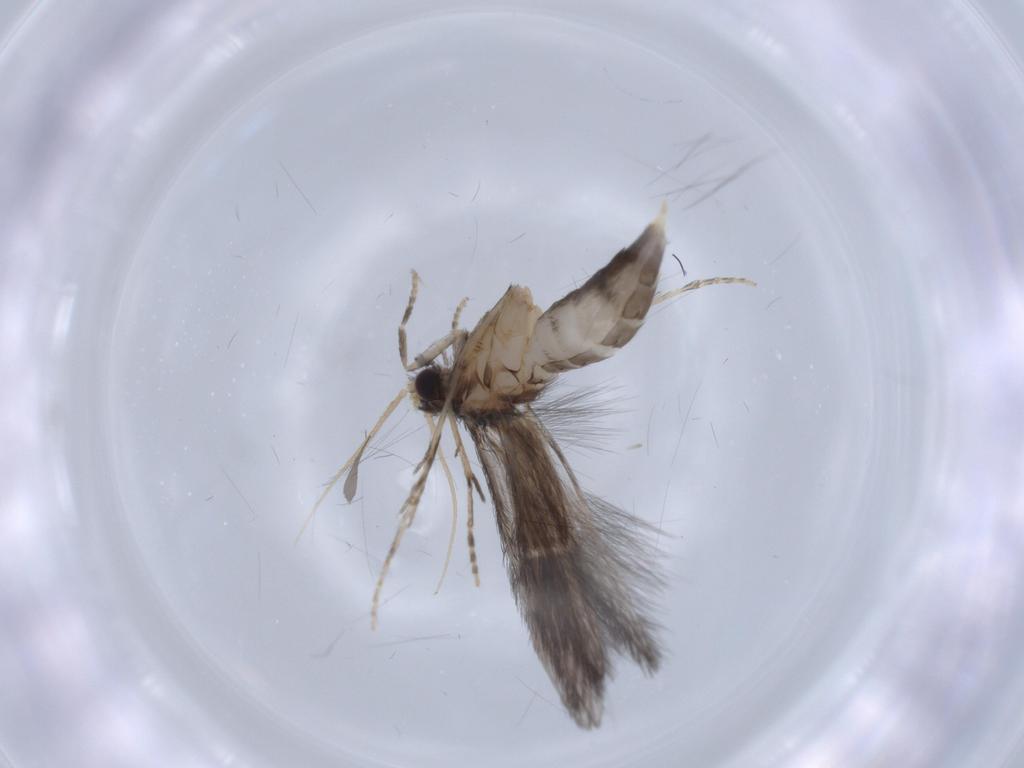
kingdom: Animalia
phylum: Arthropoda
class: Insecta
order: Trichoptera
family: Hydroptilidae
